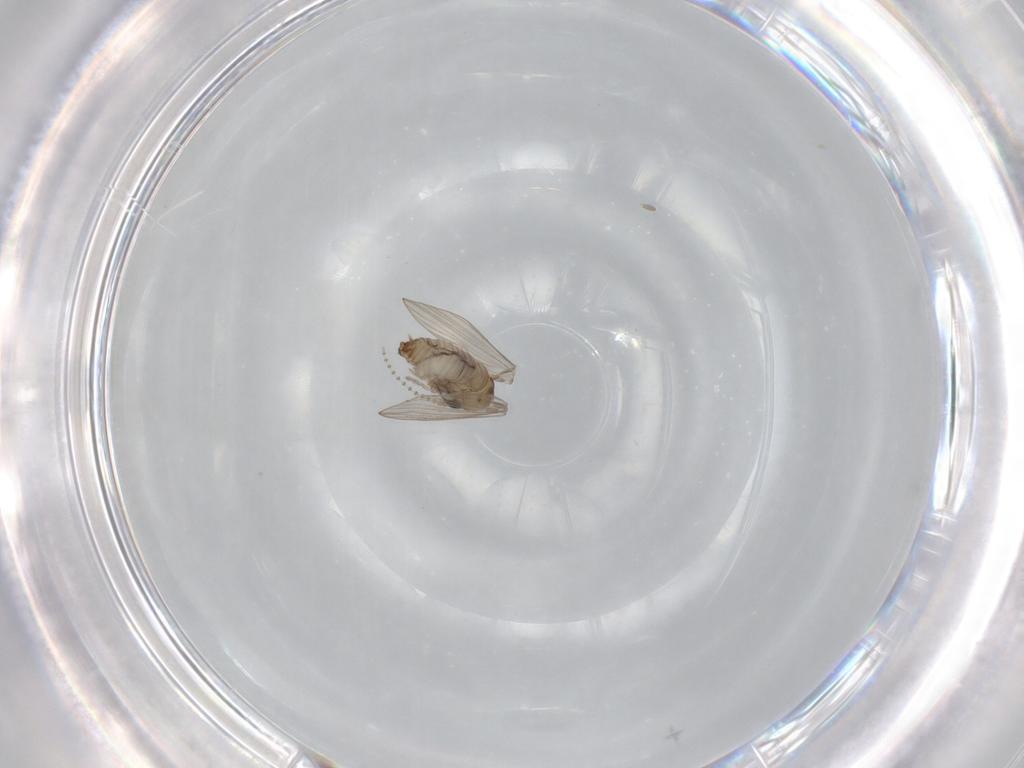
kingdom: Animalia
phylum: Arthropoda
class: Insecta
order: Diptera
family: Psychodidae
